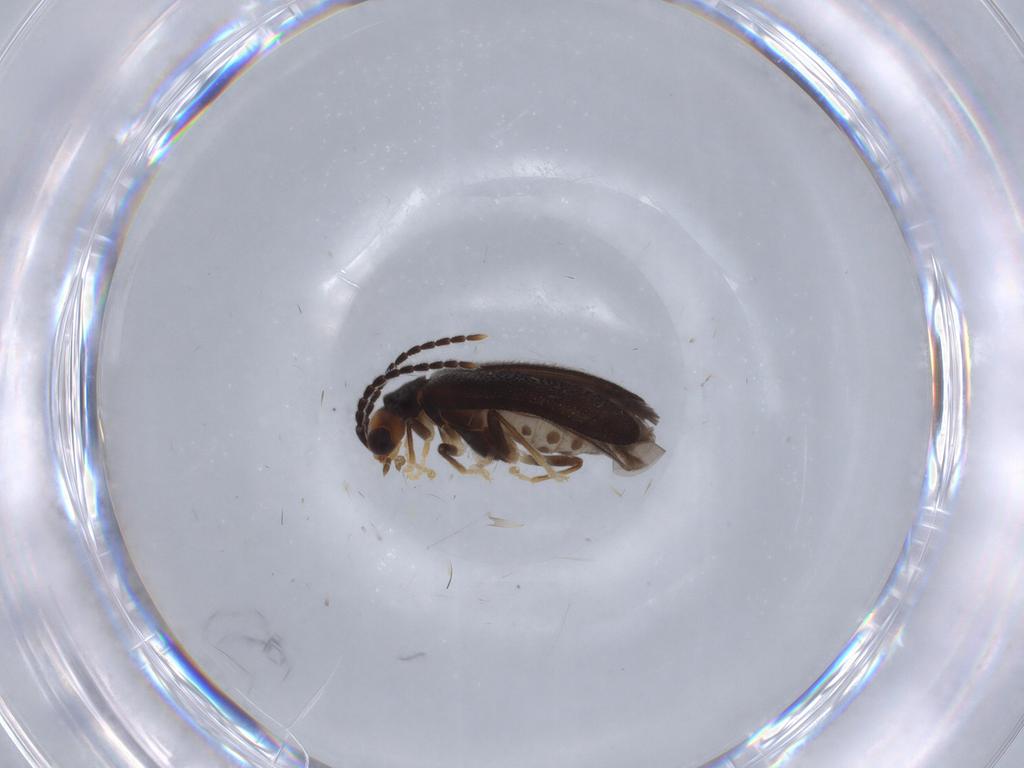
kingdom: Animalia
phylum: Arthropoda
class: Insecta
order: Coleoptera
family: Cantharidae
